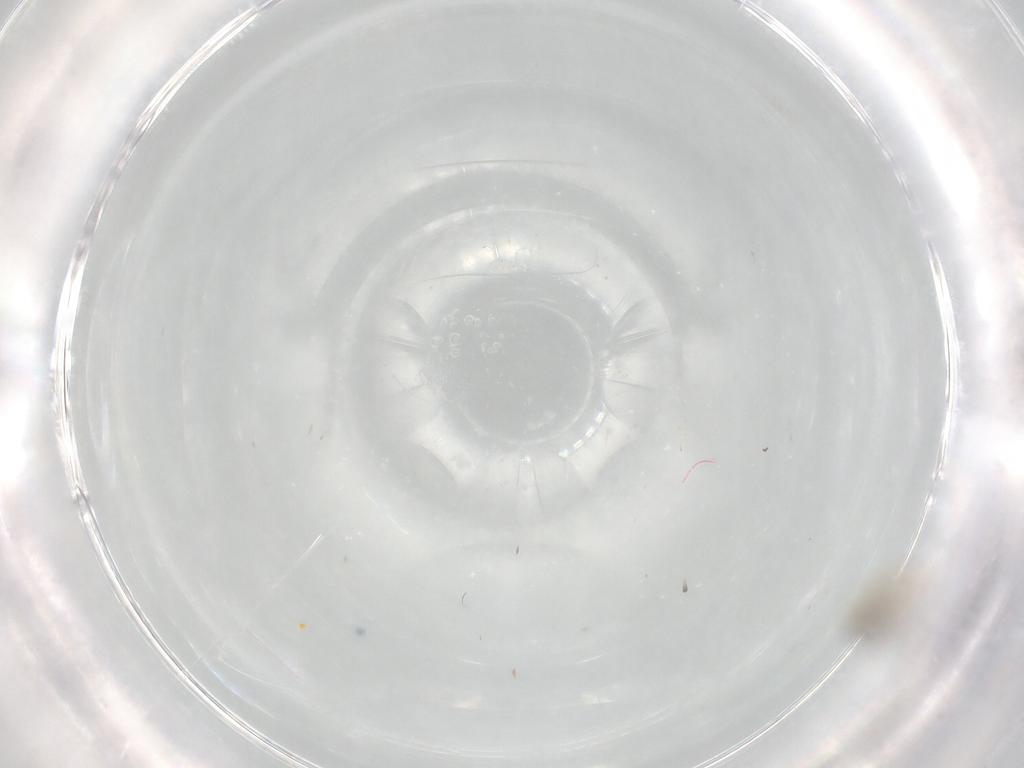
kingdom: Animalia
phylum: Arthropoda
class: Insecta
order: Diptera
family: Cecidomyiidae
